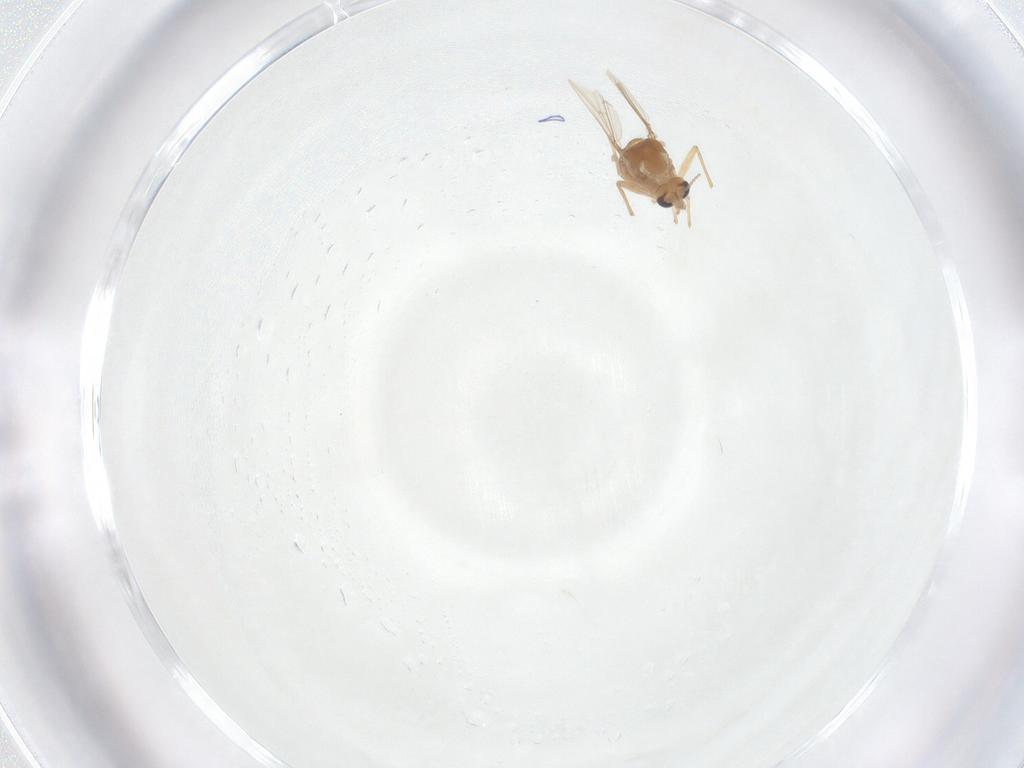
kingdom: Animalia
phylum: Arthropoda
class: Insecta
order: Diptera
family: Chironomidae
